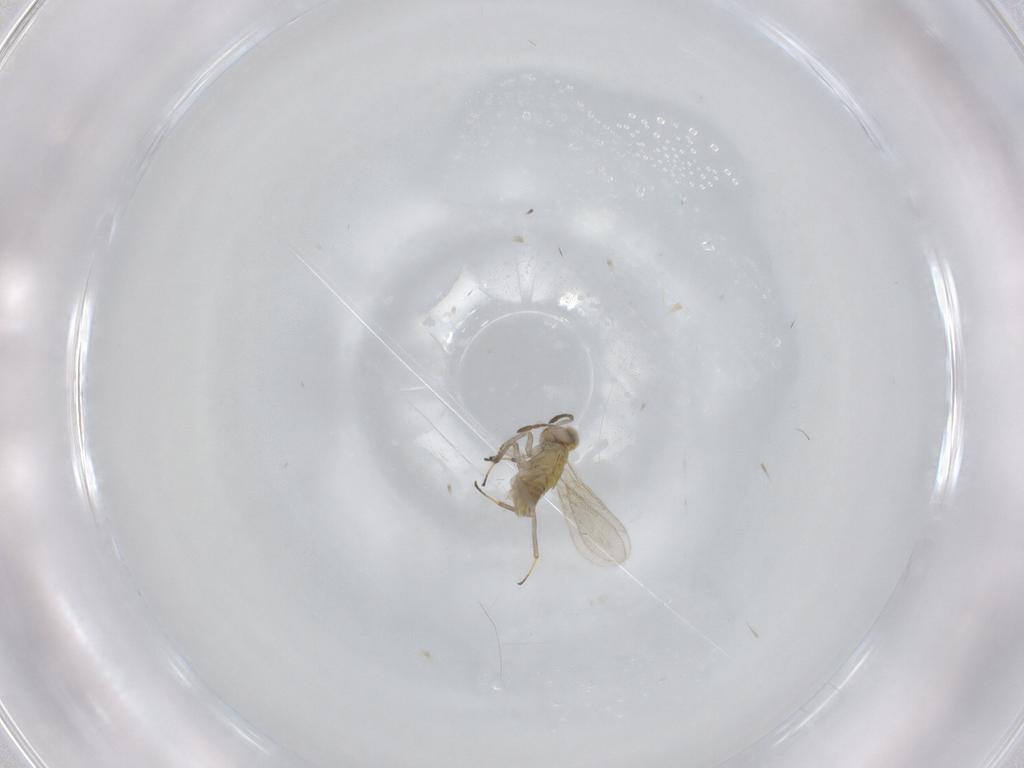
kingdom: Animalia
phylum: Arthropoda
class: Insecta
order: Hymenoptera
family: Aphelinidae
